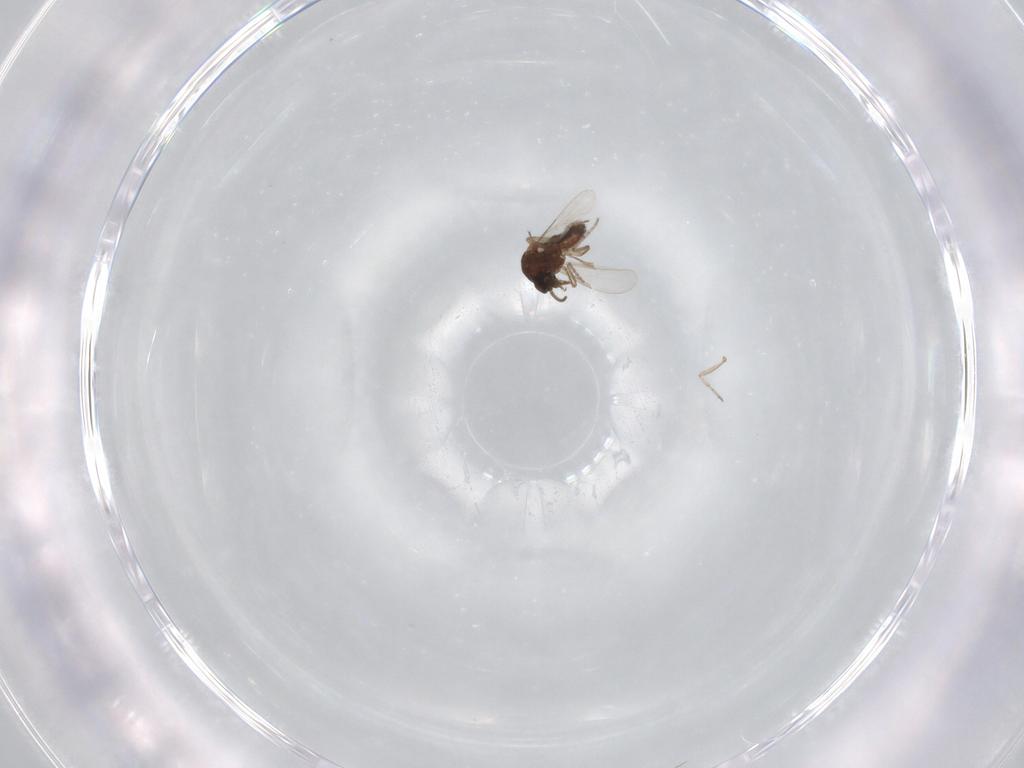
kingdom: Animalia
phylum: Arthropoda
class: Insecta
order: Diptera
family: Ceratopogonidae
